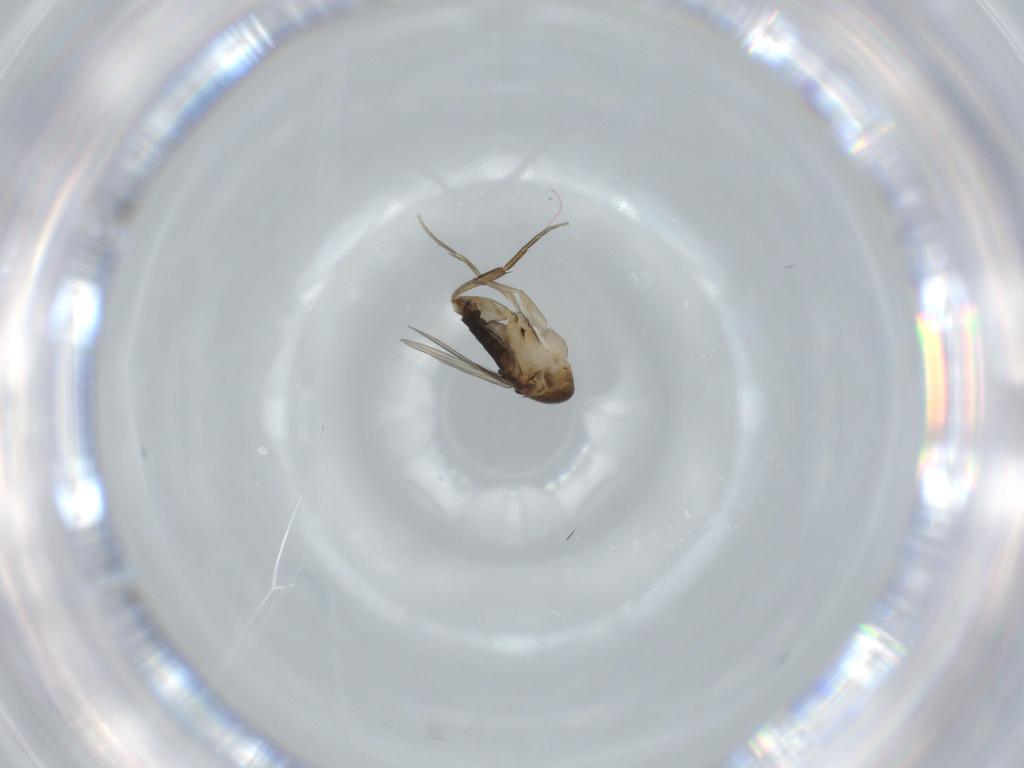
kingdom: Animalia
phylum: Arthropoda
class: Insecta
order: Diptera
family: Phoridae
